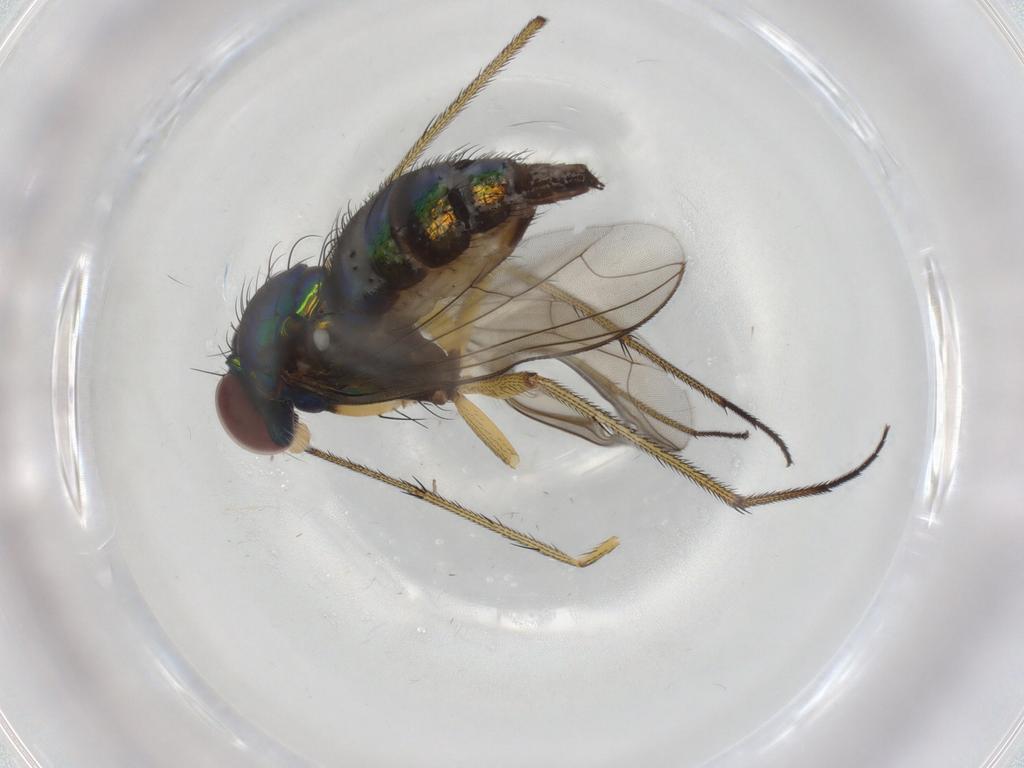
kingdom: Animalia
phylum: Arthropoda
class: Insecta
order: Diptera
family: Dolichopodidae
